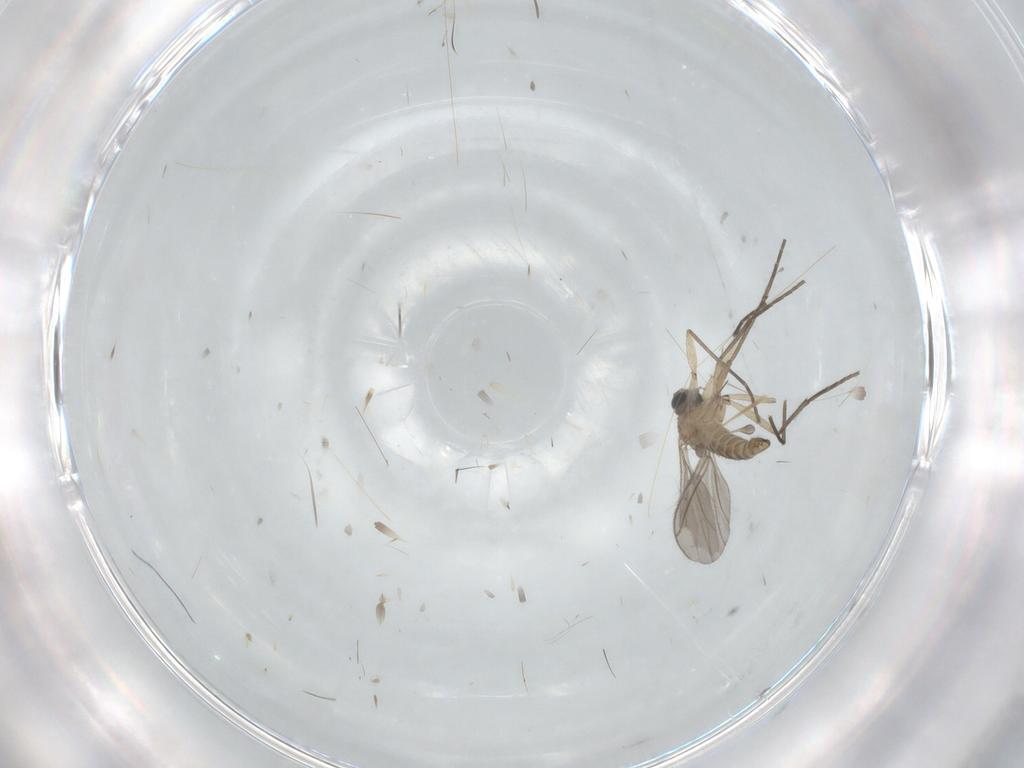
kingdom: Animalia
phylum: Arthropoda
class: Insecta
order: Diptera
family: Sciaridae
